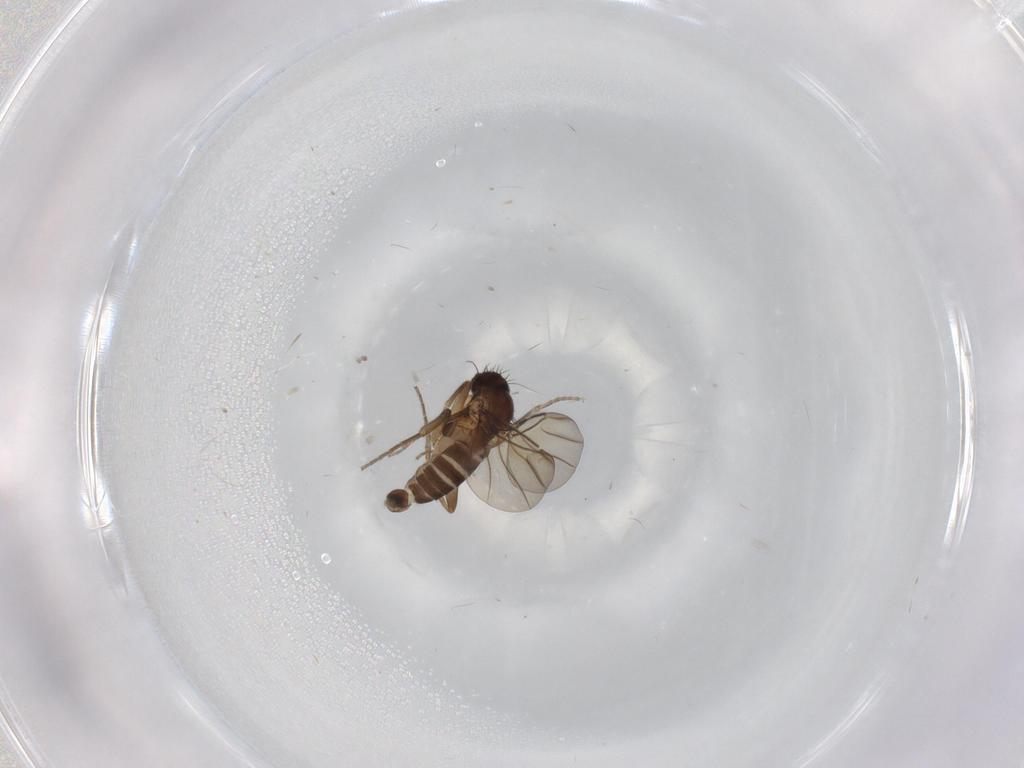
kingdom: Animalia
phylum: Arthropoda
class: Insecta
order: Diptera
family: Phoridae
